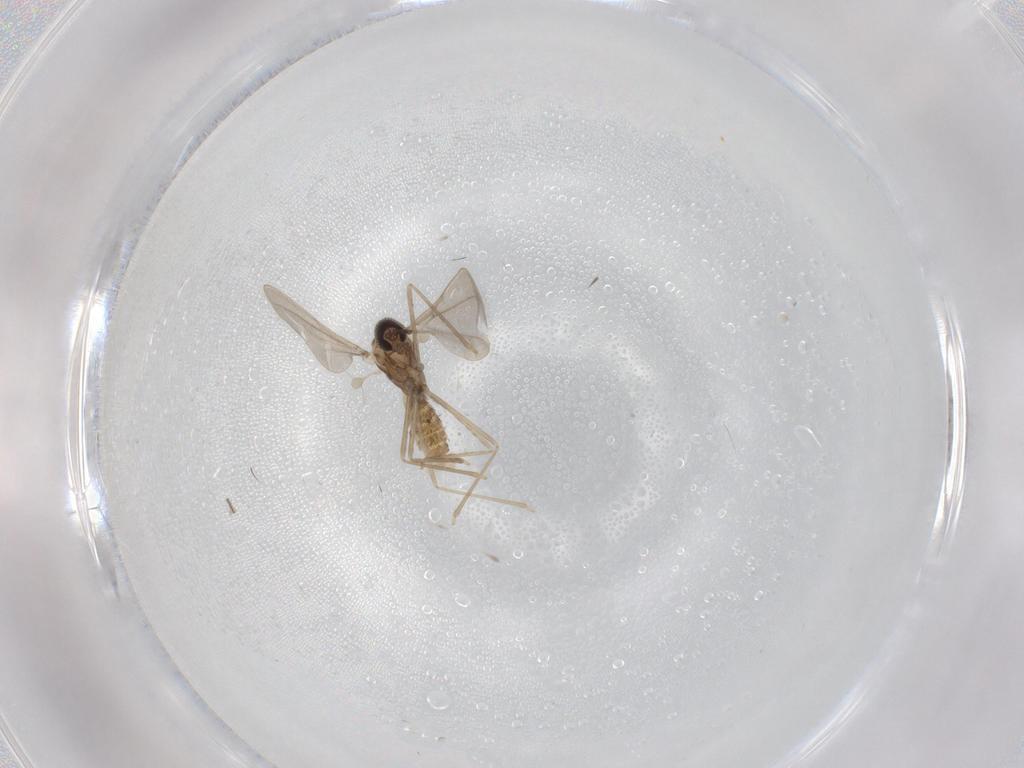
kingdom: Animalia
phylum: Arthropoda
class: Insecta
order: Diptera
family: Cecidomyiidae
